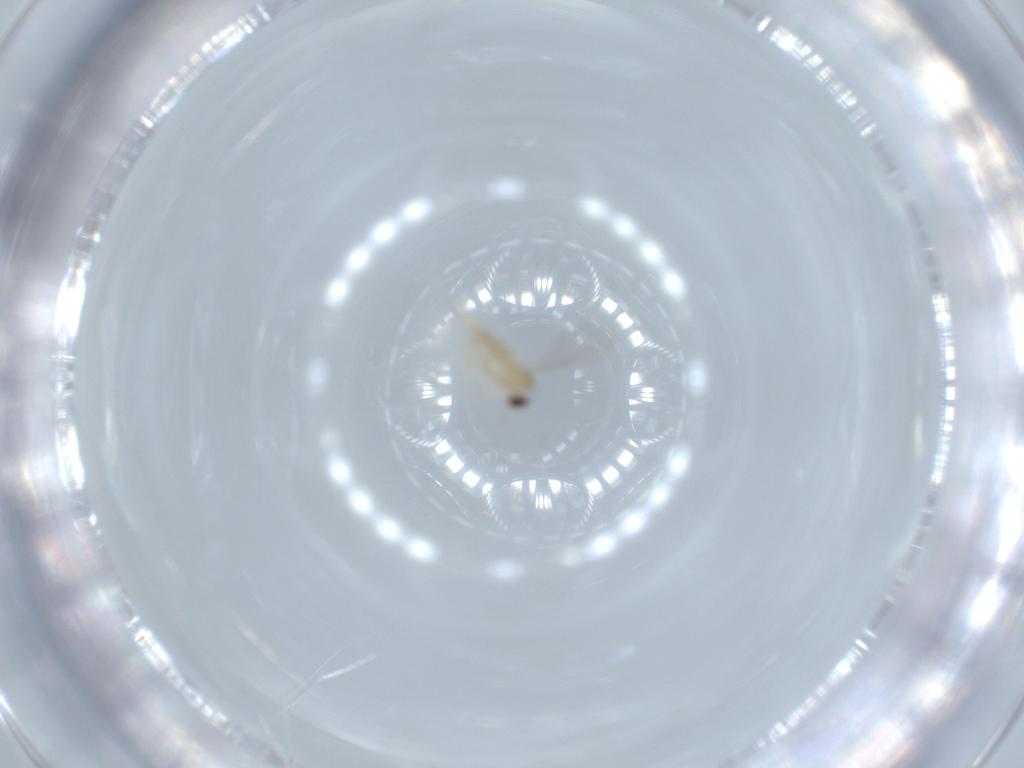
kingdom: Animalia
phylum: Arthropoda
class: Insecta
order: Diptera
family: Cecidomyiidae
